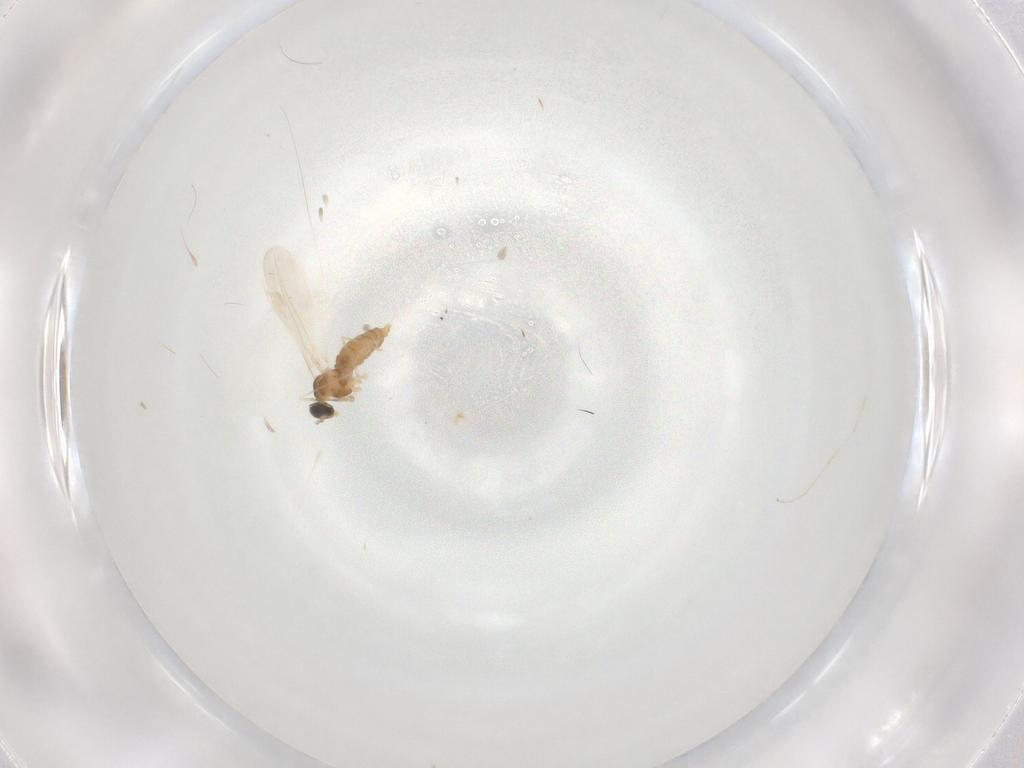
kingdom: Animalia
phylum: Arthropoda
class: Insecta
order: Diptera
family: Cecidomyiidae
